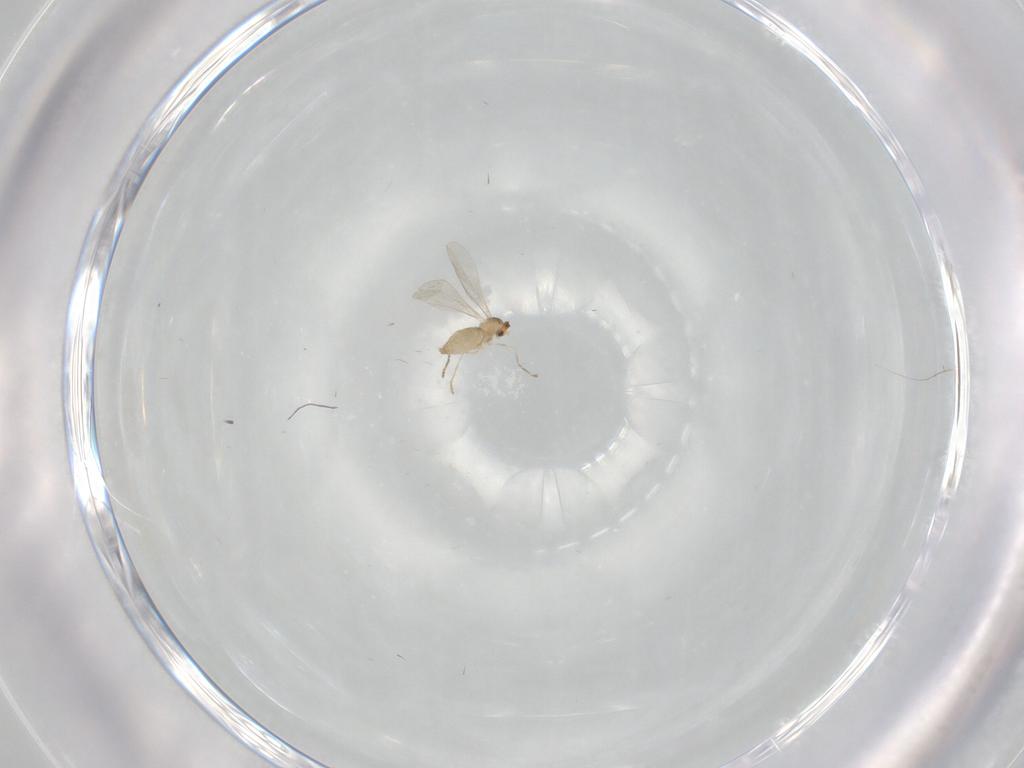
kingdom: Animalia
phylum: Arthropoda
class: Insecta
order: Diptera
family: Cecidomyiidae
